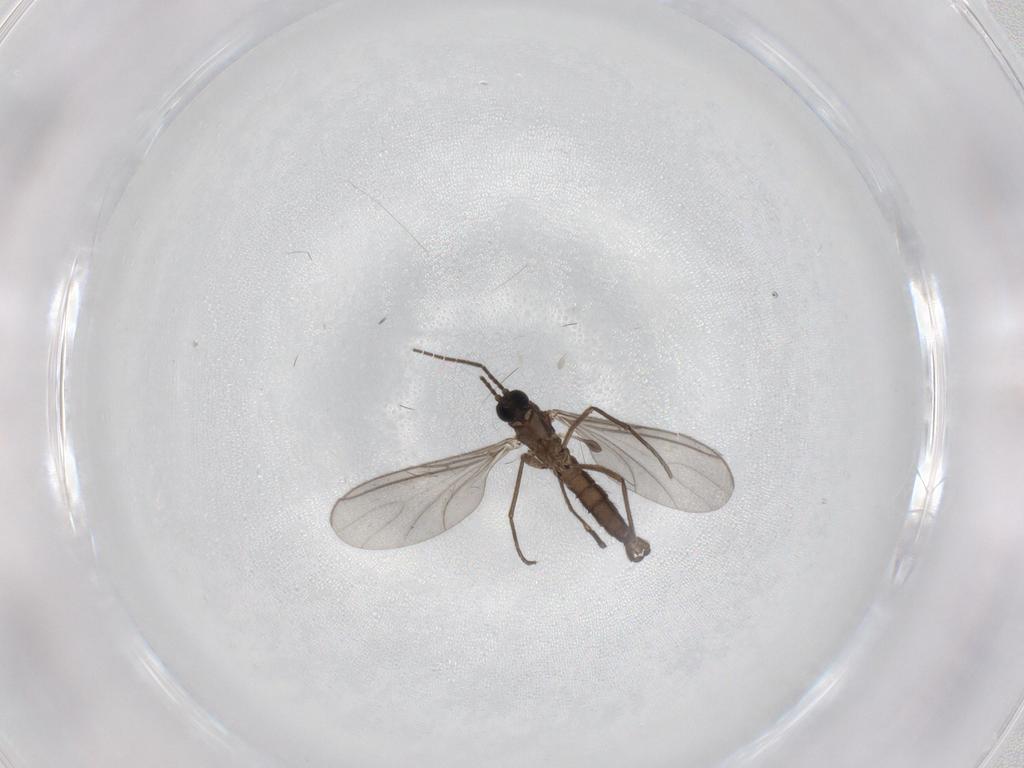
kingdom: Animalia
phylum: Arthropoda
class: Insecta
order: Diptera
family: Sciaridae
